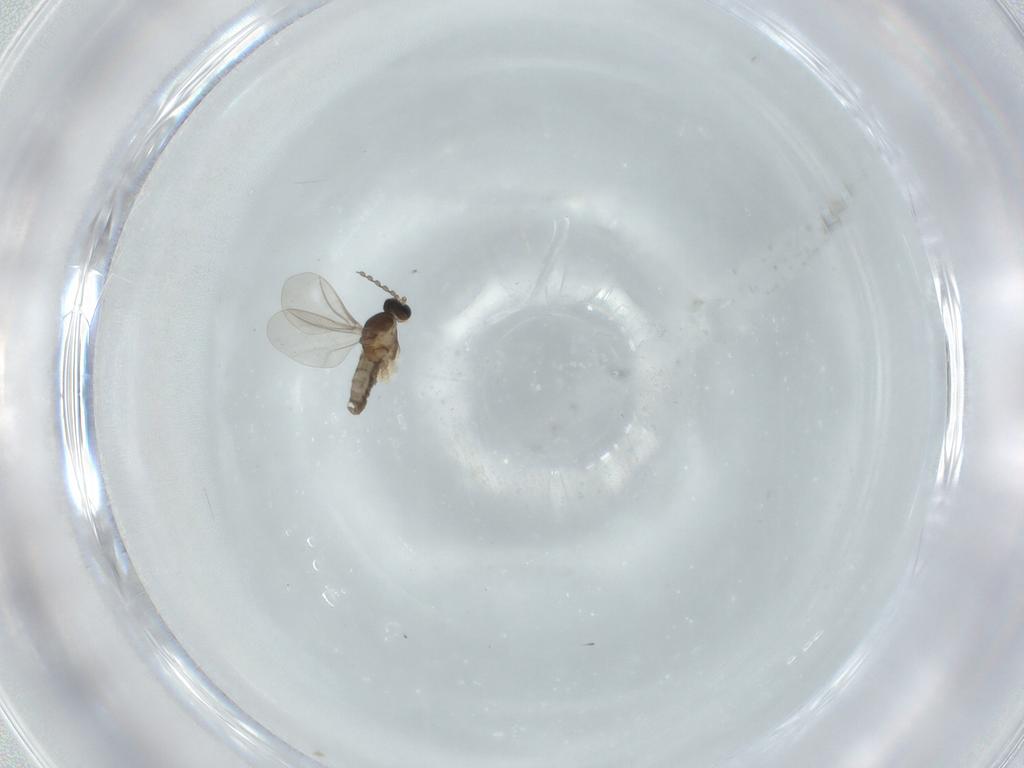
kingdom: Animalia
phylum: Arthropoda
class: Insecta
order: Diptera
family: Cecidomyiidae
